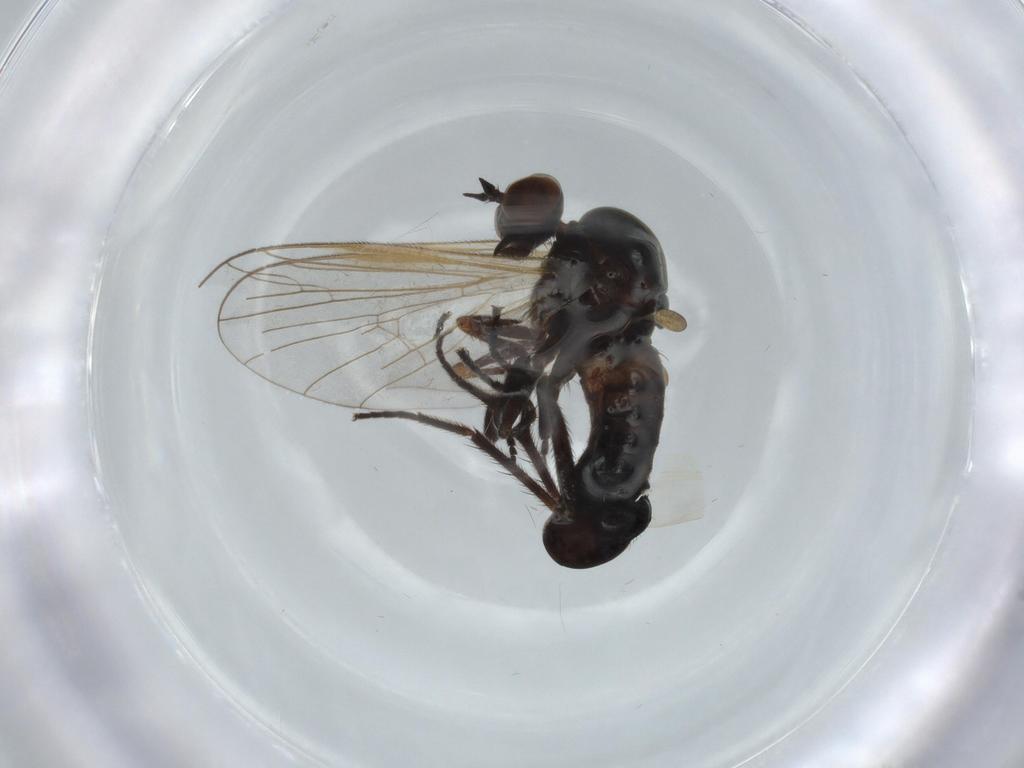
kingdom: Animalia
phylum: Arthropoda
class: Insecta
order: Diptera
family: Empididae
